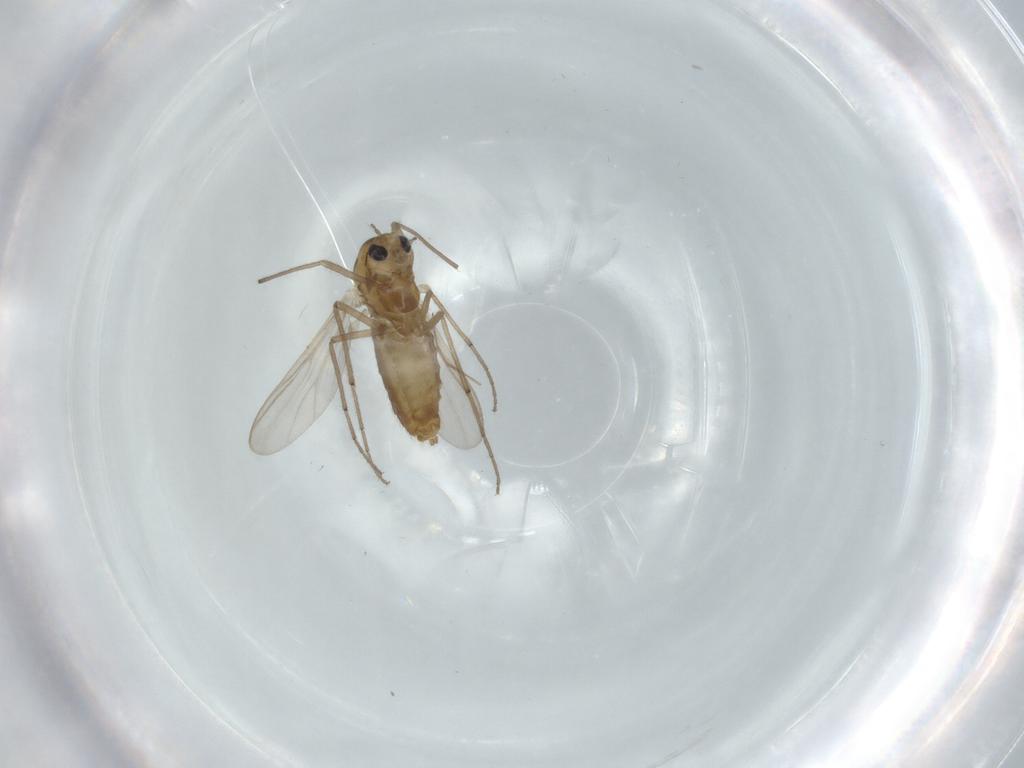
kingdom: Animalia
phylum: Arthropoda
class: Insecta
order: Diptera
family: Chironomidae
